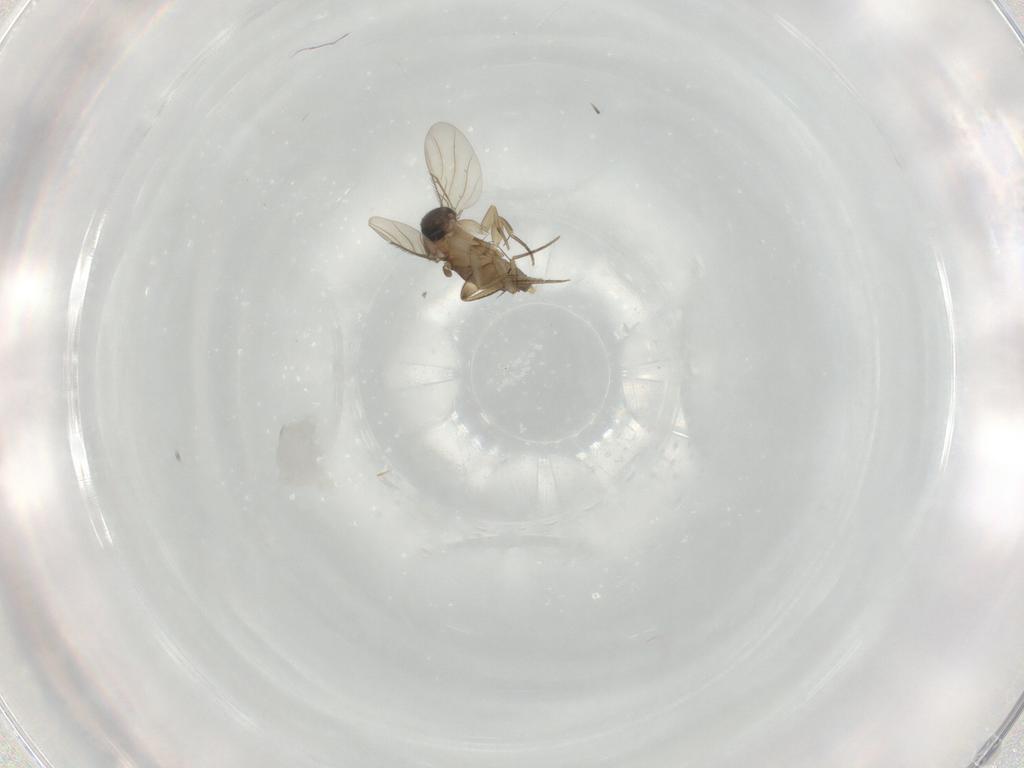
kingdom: Animalia
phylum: Arthropoda
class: Insecta
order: Diptera
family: Phoridae
